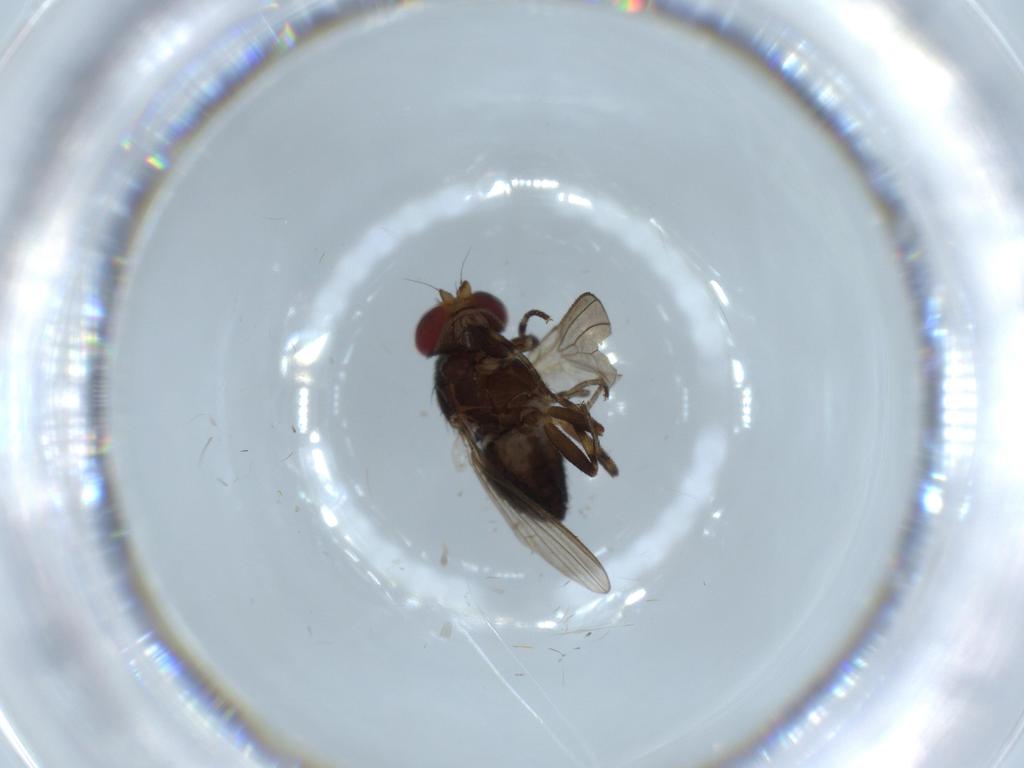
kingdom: Animalia
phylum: Arthropoda
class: Insecta
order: Diptera
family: Heleomyzidae
